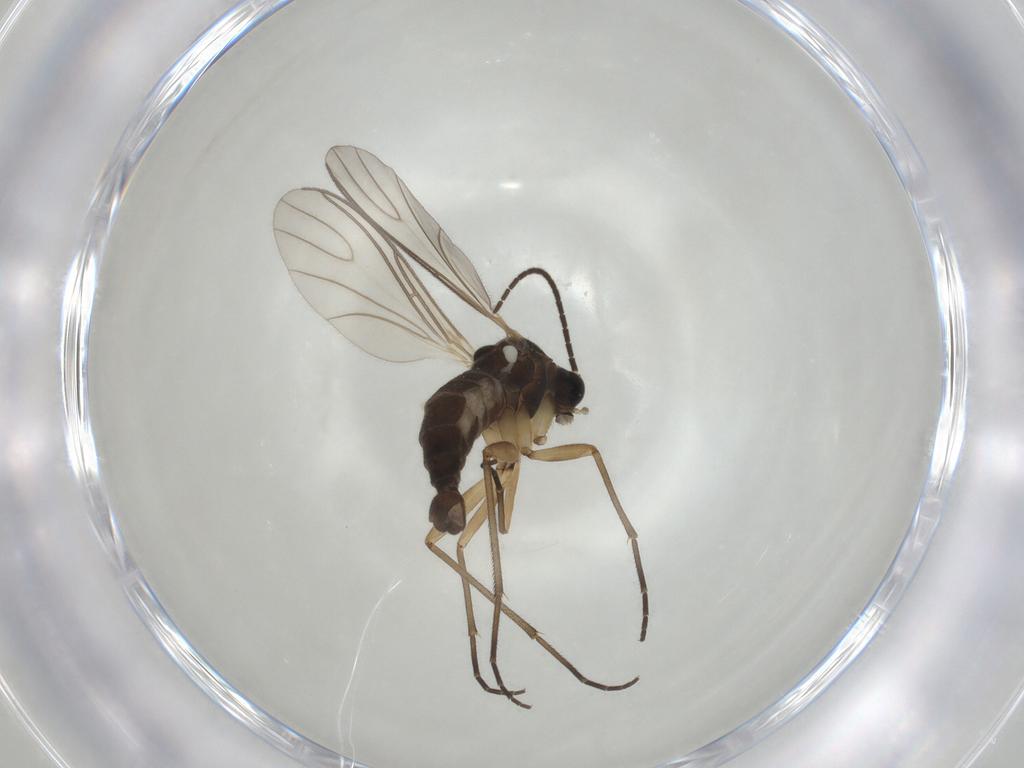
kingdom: Animalia
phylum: Arthropoda
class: Insecta
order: Diptera
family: Sciaridae
